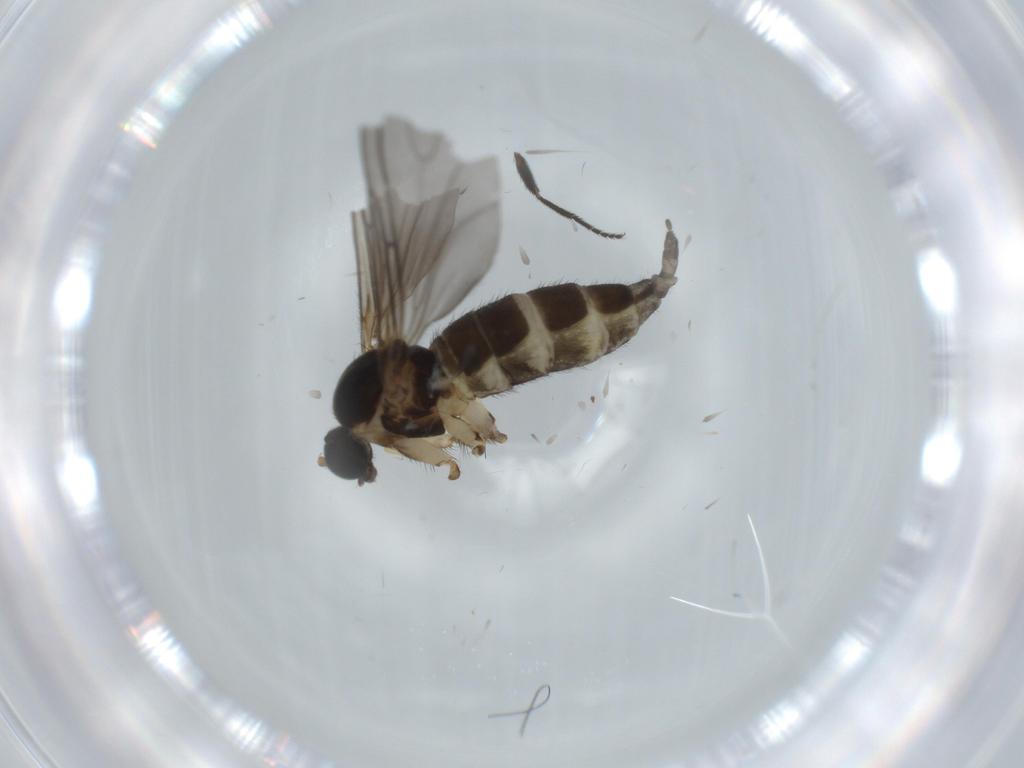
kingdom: Animalia
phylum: Arthropoda
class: Insecta
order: Diptera
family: Sciaridae
